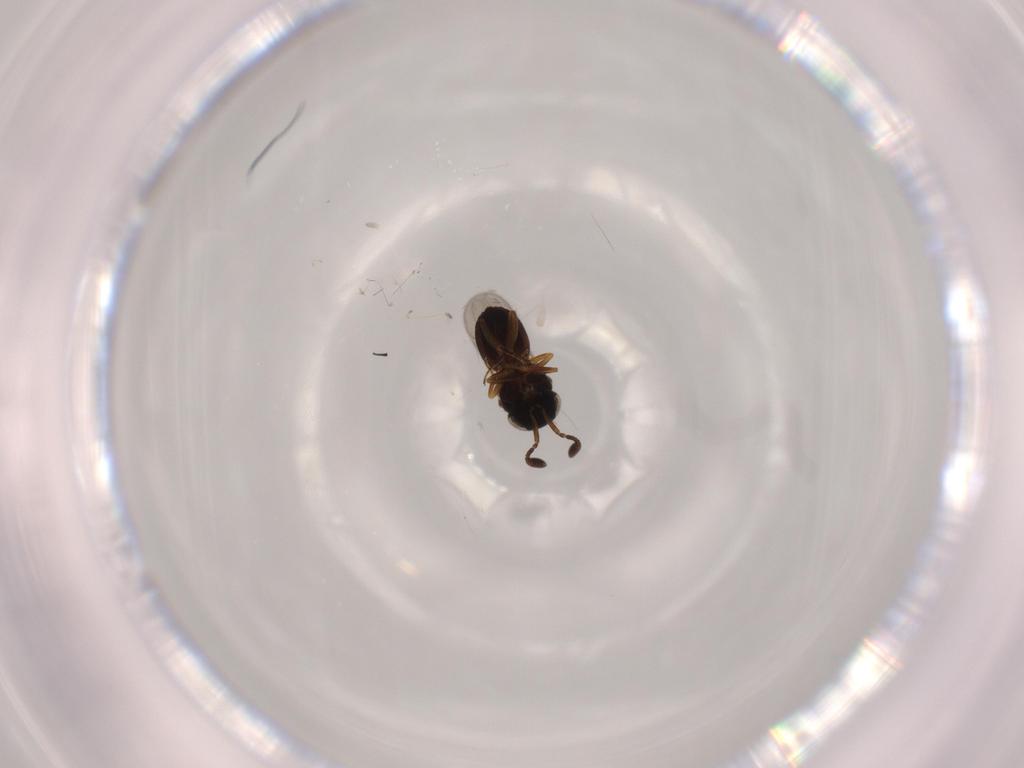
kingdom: Animalia
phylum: Arthropoda
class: Insecta
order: Hymenoptera
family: Scelionidae
